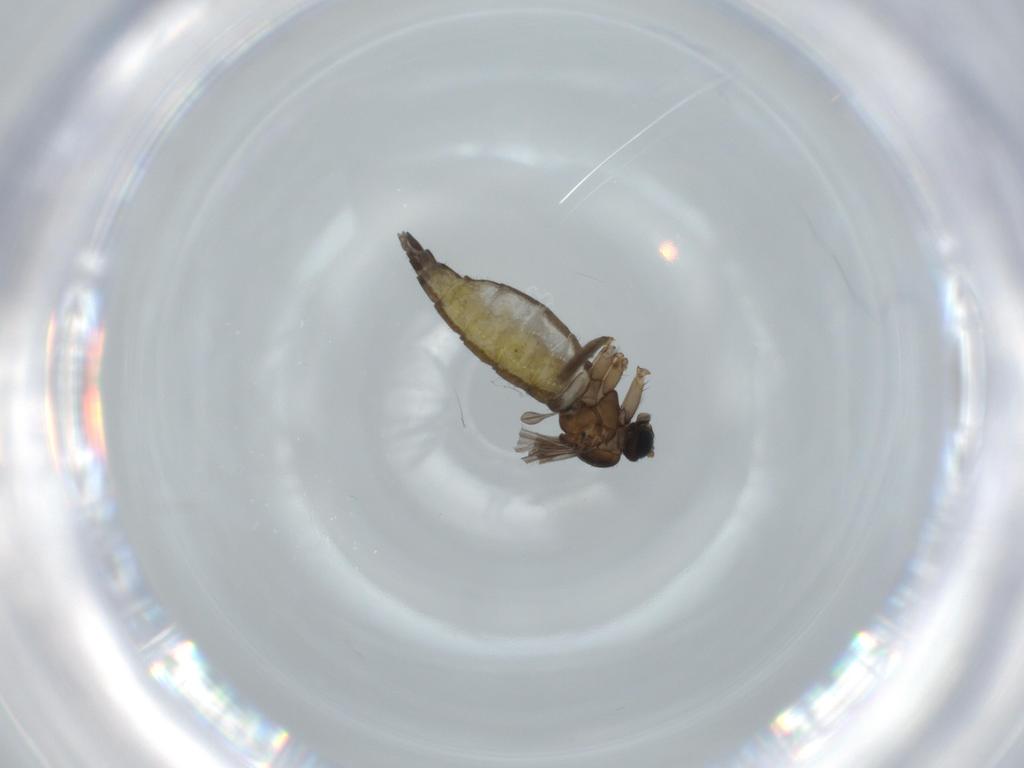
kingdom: Animalia
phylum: Arthropoda
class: Insecta
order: Diptera
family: Sciaridae
